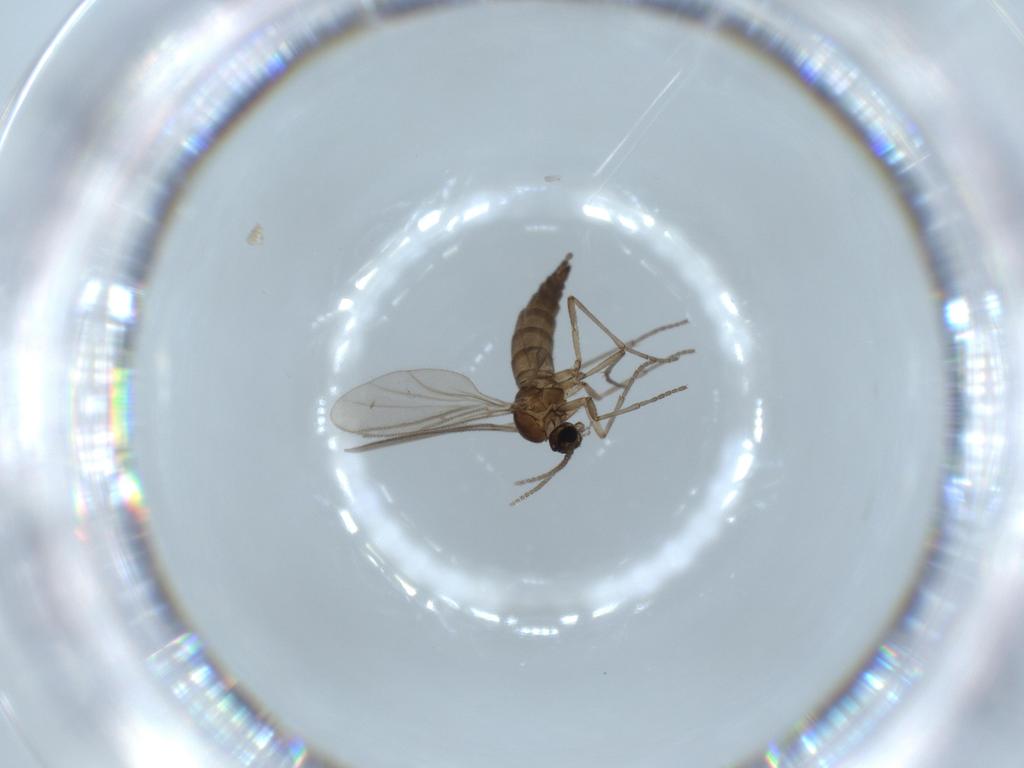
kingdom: Animalia
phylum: Arthropoda
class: Insecta
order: Diptera
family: Sciaridae
